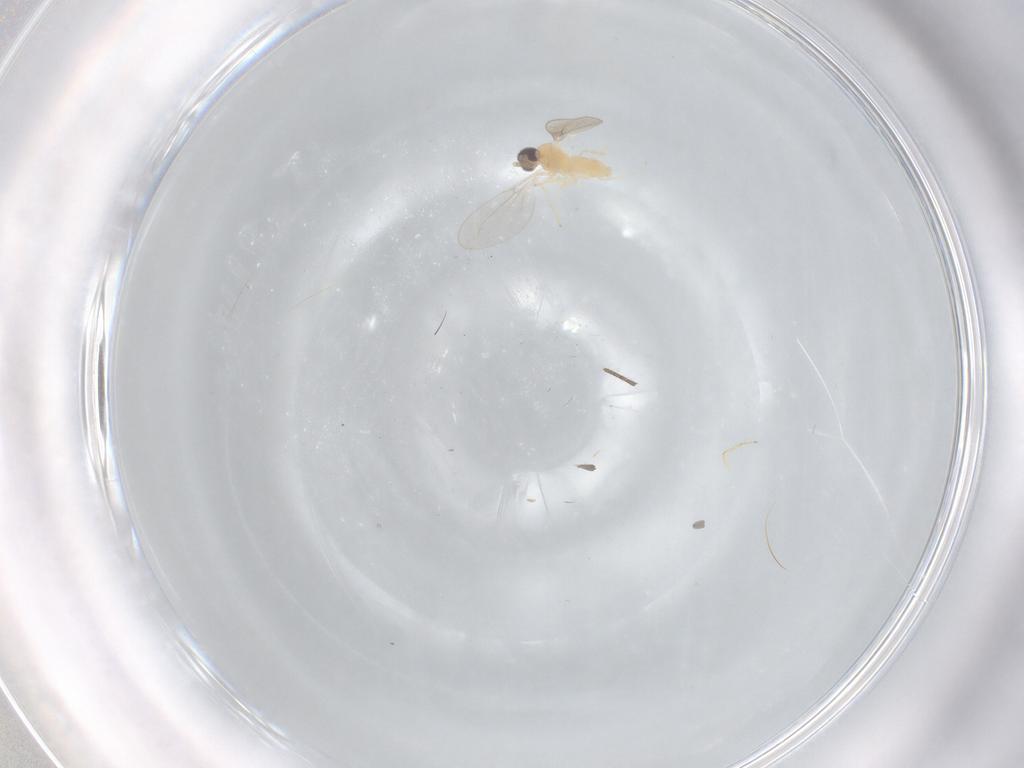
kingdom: Animalia
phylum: Arthropoda
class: Insecta
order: Diptera
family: Cecidomyiidae
